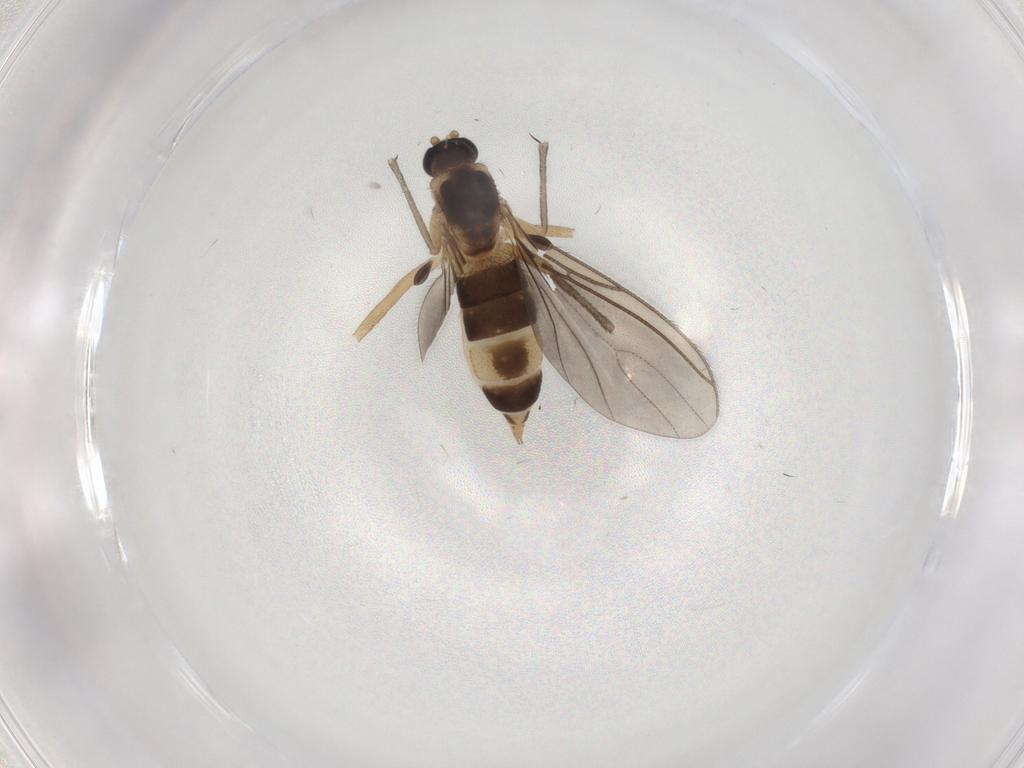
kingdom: Animalia
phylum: Arthropoda
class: Insecta
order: Diptera
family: Sciaridae
